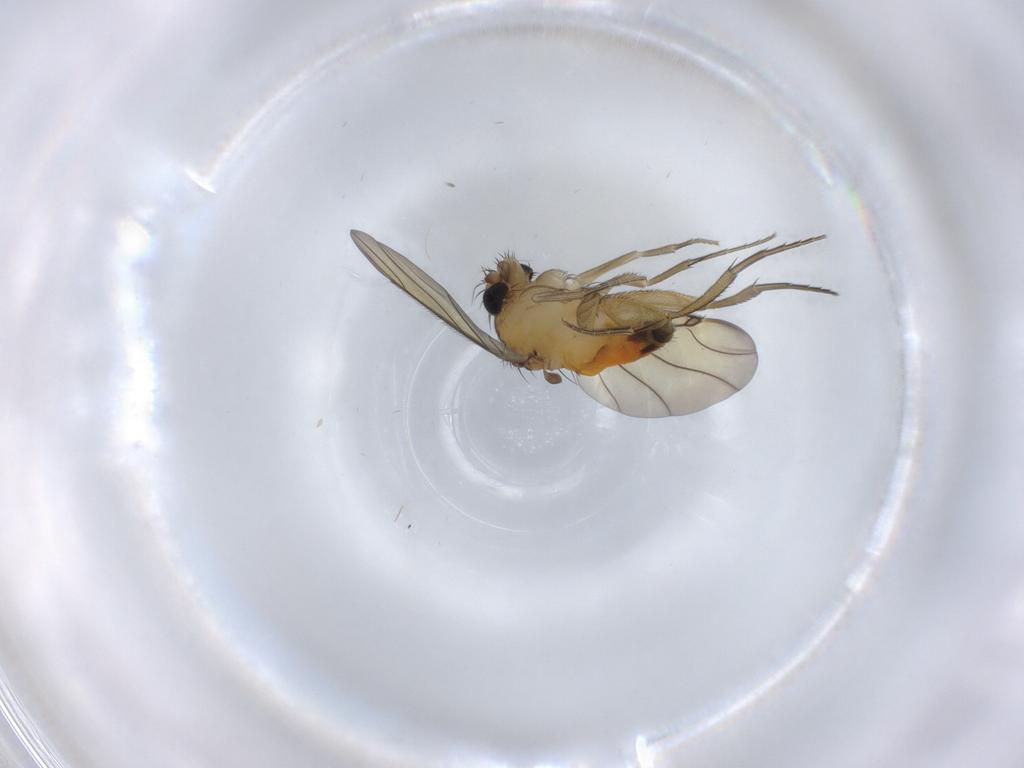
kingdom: Animalia
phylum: Arthropoda
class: Insecta
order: Diptera
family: Phoridae
